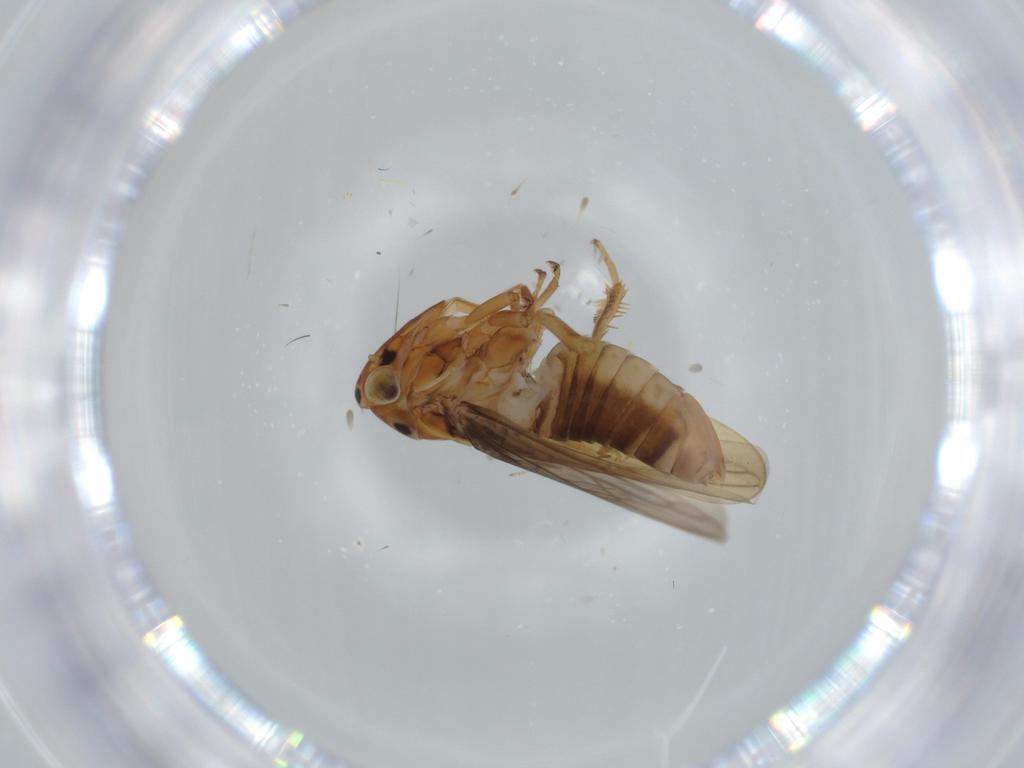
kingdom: Animalia
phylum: Arthropoda
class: Insecta
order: Hemiptera
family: Cicadellidae
